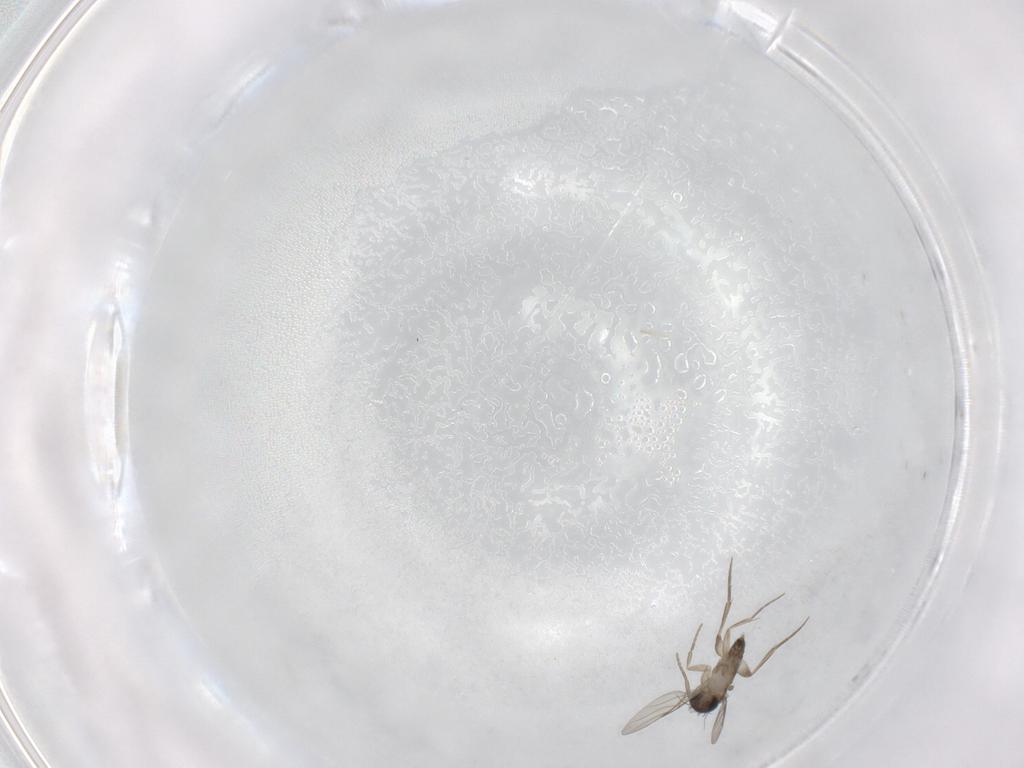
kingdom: Animalia
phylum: Arthropoda
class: Insecta
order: Diptera
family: Phoridae
